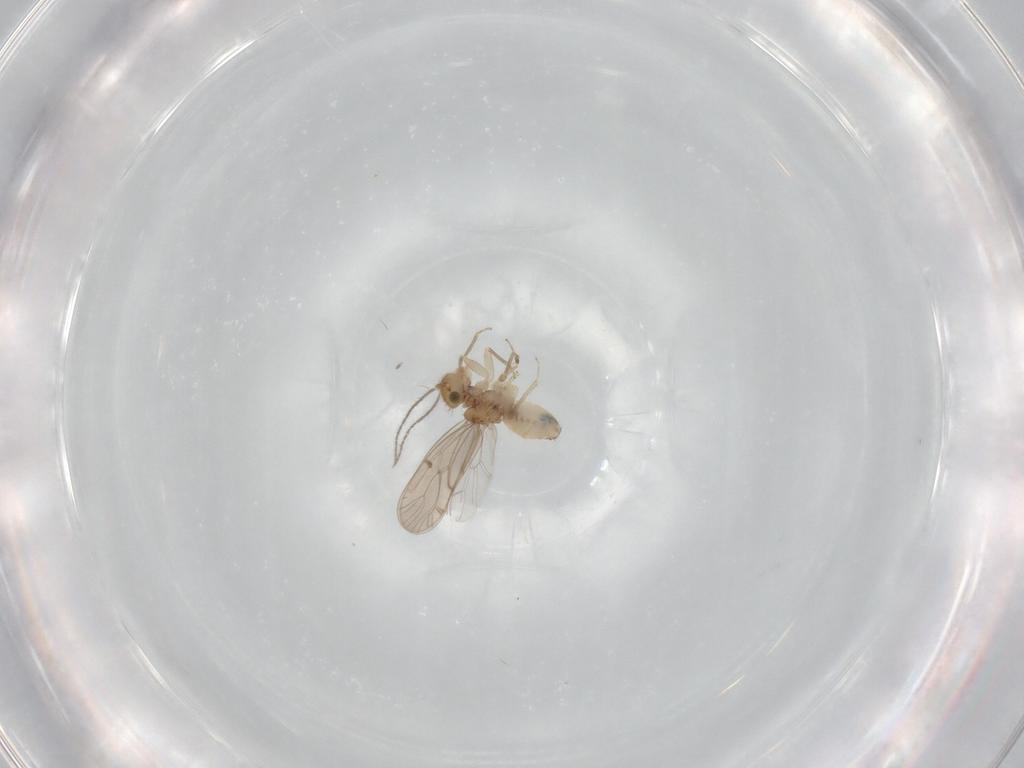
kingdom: Animalia
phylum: Arthropoda
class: Insecta
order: Psocodea
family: Ectopsocidae
